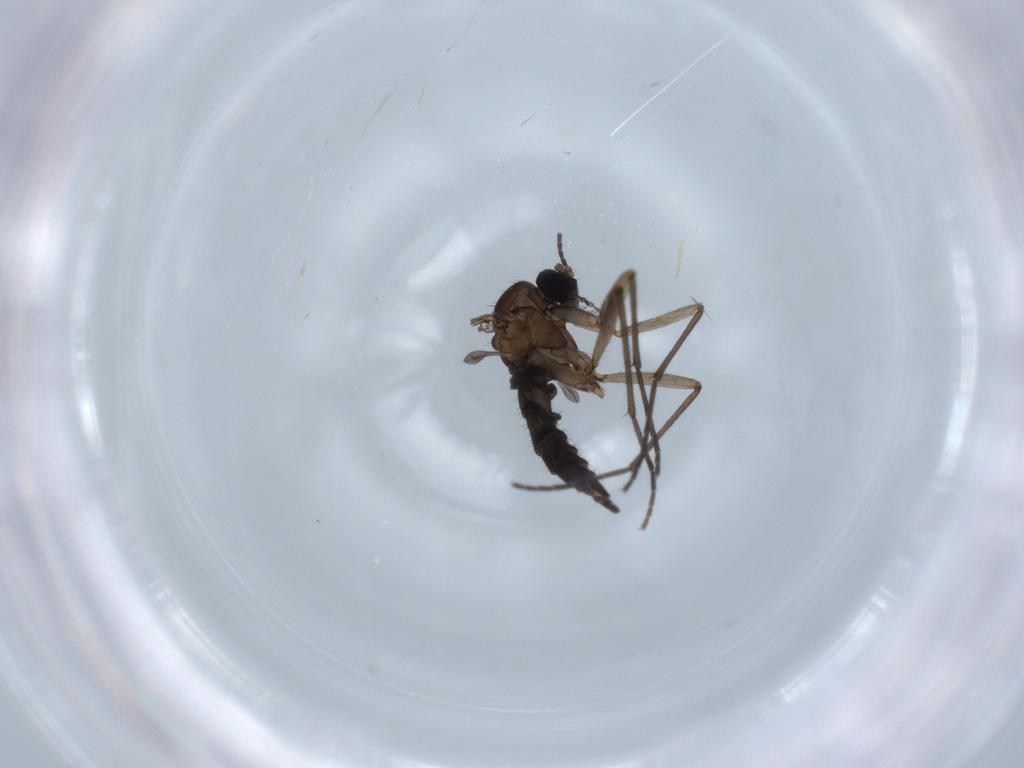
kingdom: Animalia
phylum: Arthropoda
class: Insecta
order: Diptera
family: Sciaridae
